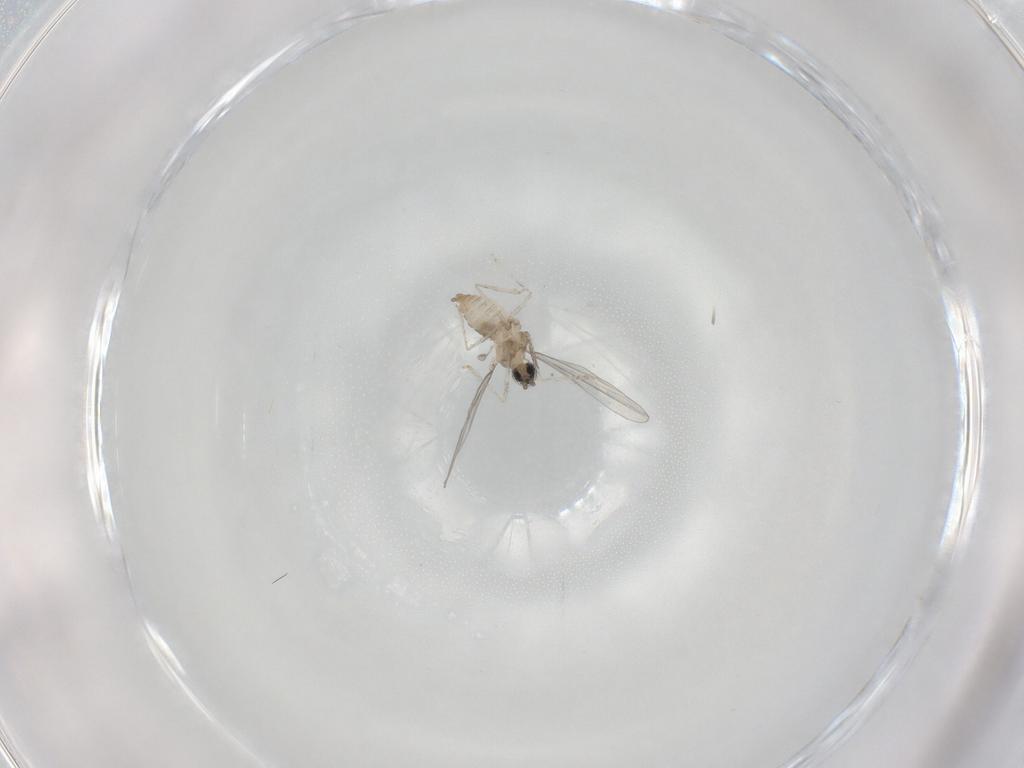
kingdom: Animalia
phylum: Arthropoda
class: Insecta
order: Diptera
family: Cecidomyiidae
